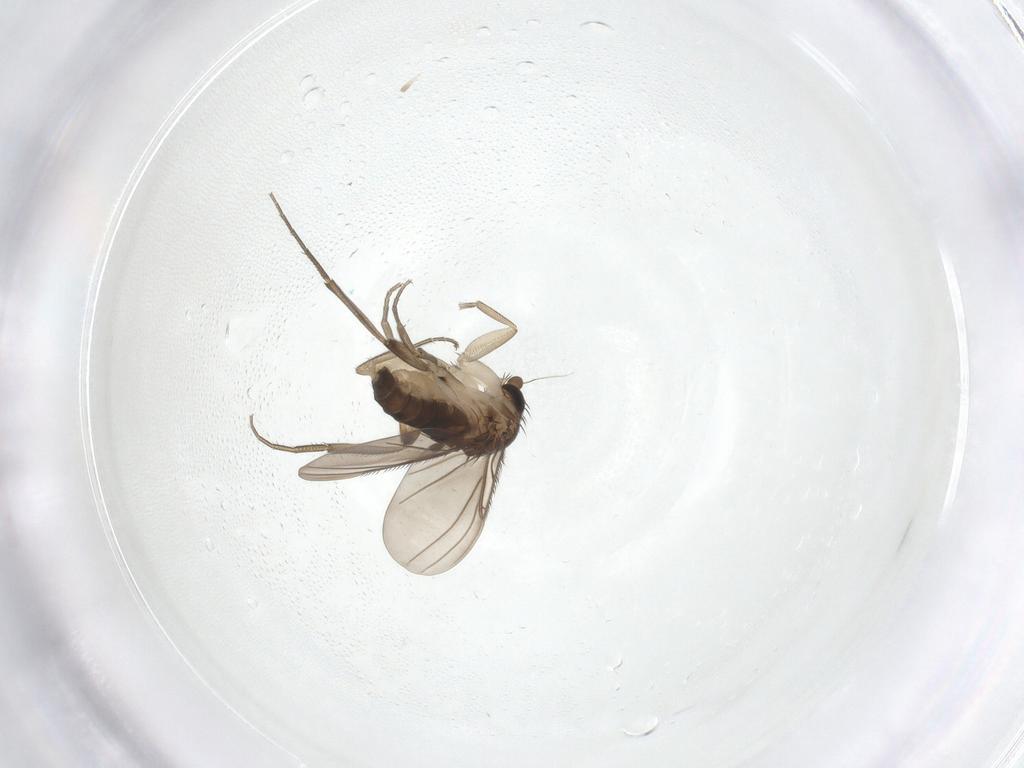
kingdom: Animalia
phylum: Arthropoda
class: Insecta
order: Diptera
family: Phoridae
